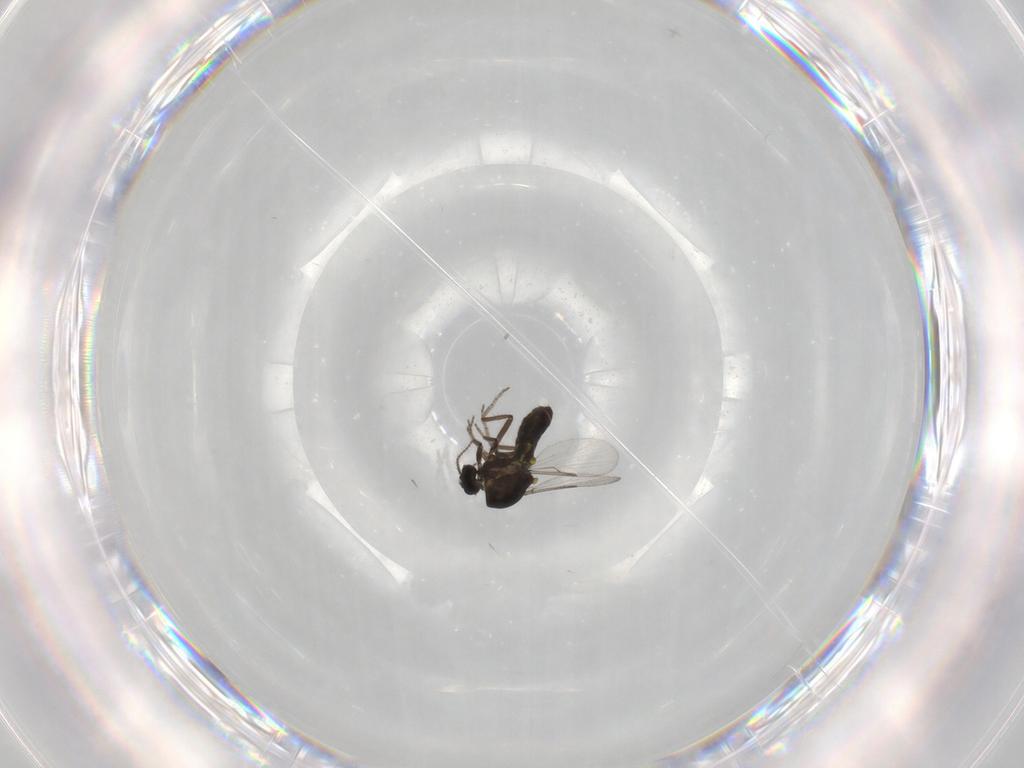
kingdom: Animalia
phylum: Arthropoda
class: Insecta
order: Diptera
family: Ceratopogonidae
